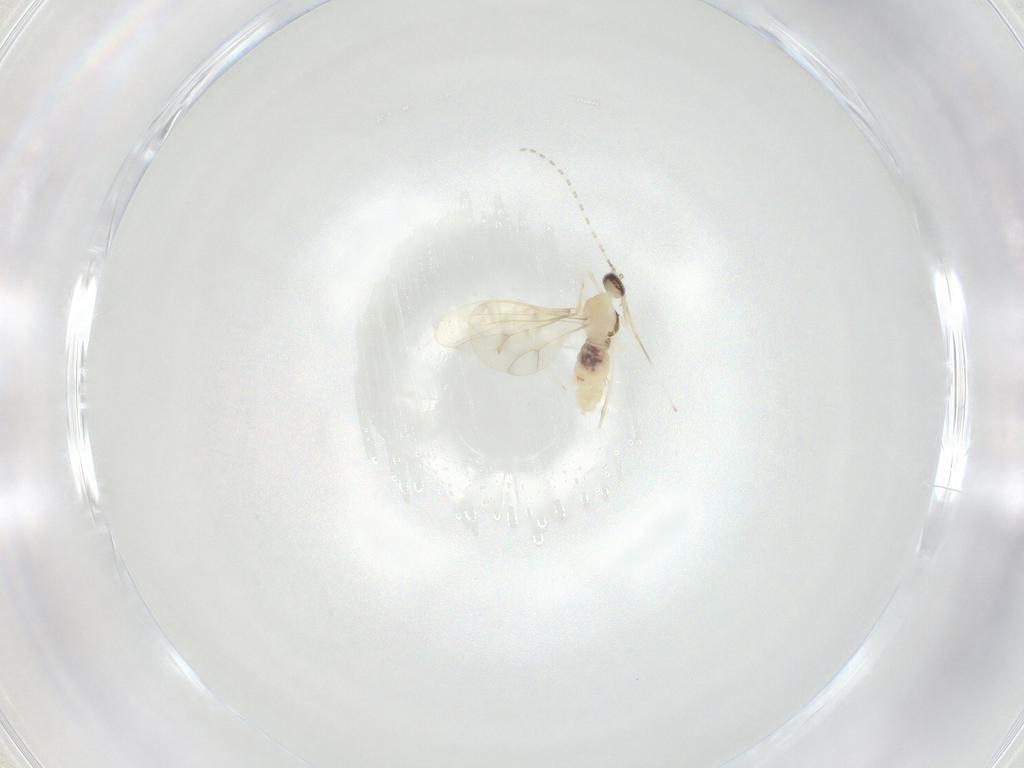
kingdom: Animalia
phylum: Arthropoda
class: Insecta
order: Diptera
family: Cecidomyiidae
